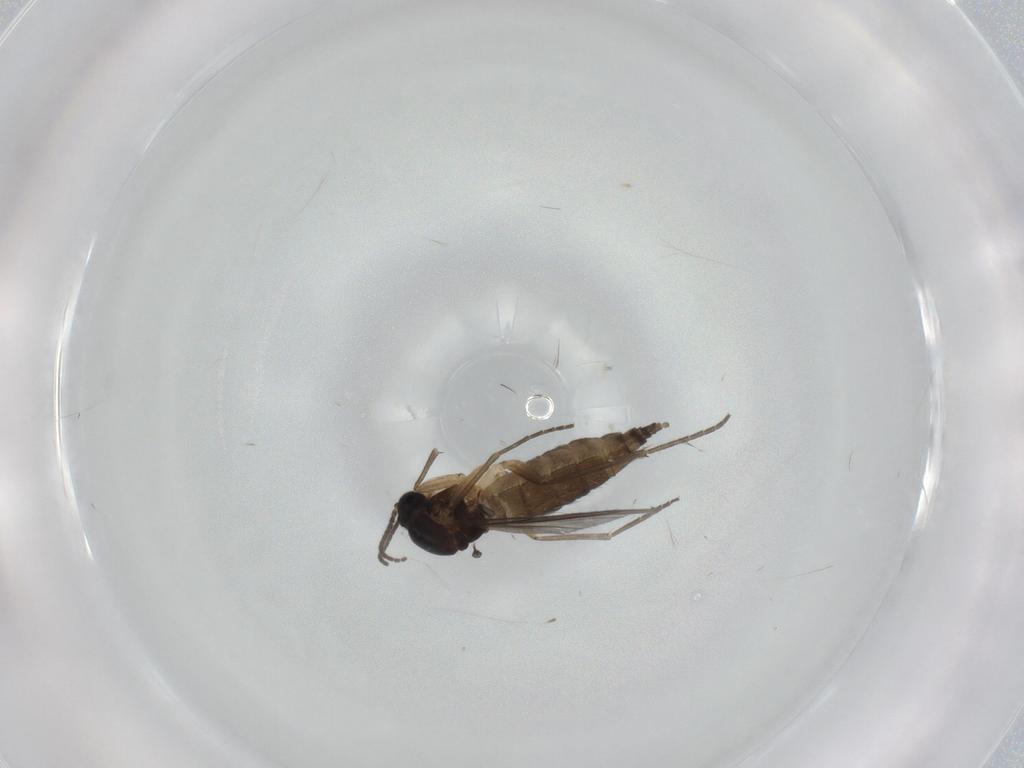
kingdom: Animalia
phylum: Arthropoda
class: Insecta
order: Diptera
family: Sciaridae
